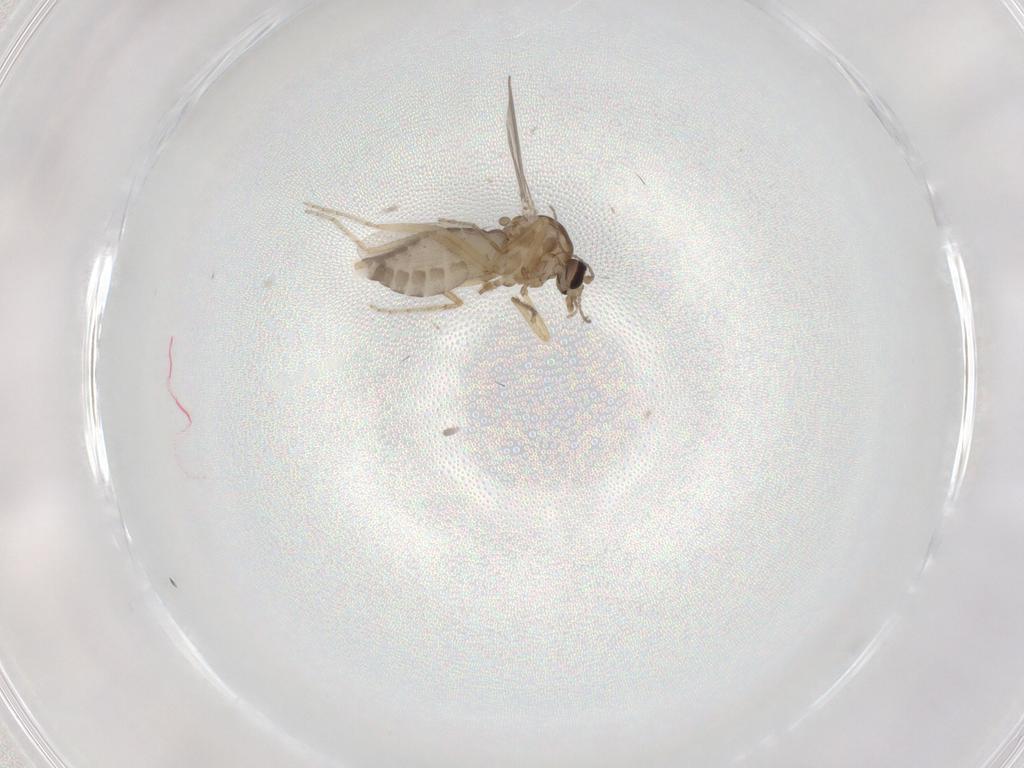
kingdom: Animalia
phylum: Arthropoda
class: Insecta
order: Diptera
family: Ceratopogonidae
